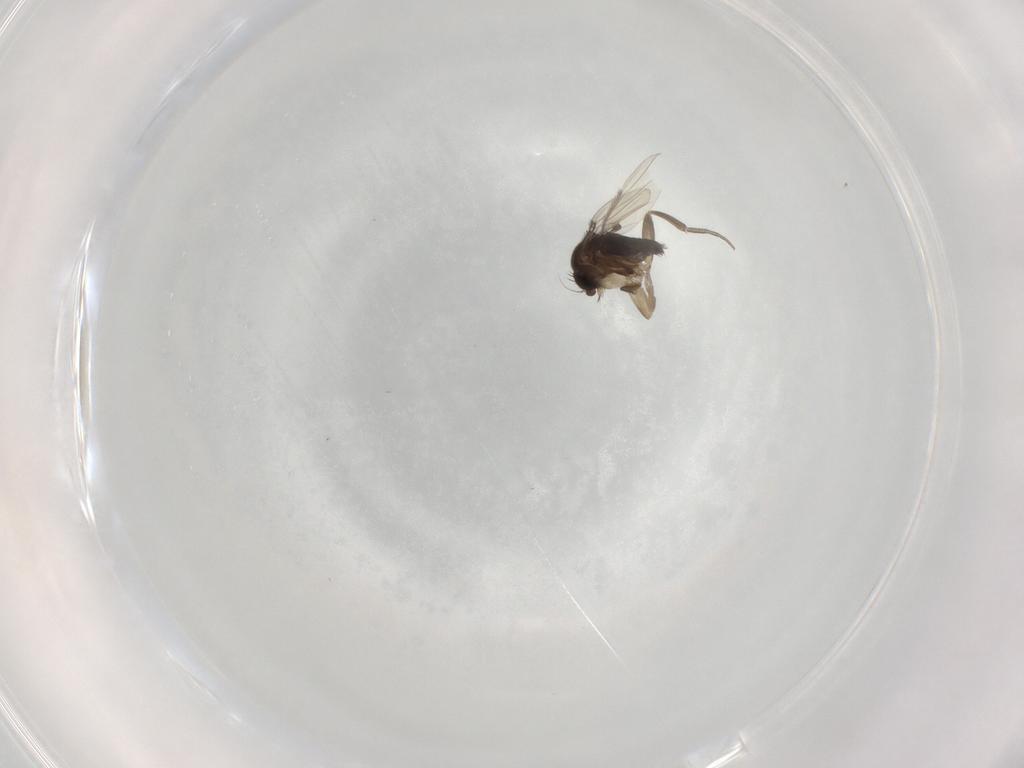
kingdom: Animalia
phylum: Arthropoda
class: Insecta
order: Diptera
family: Phoridae
